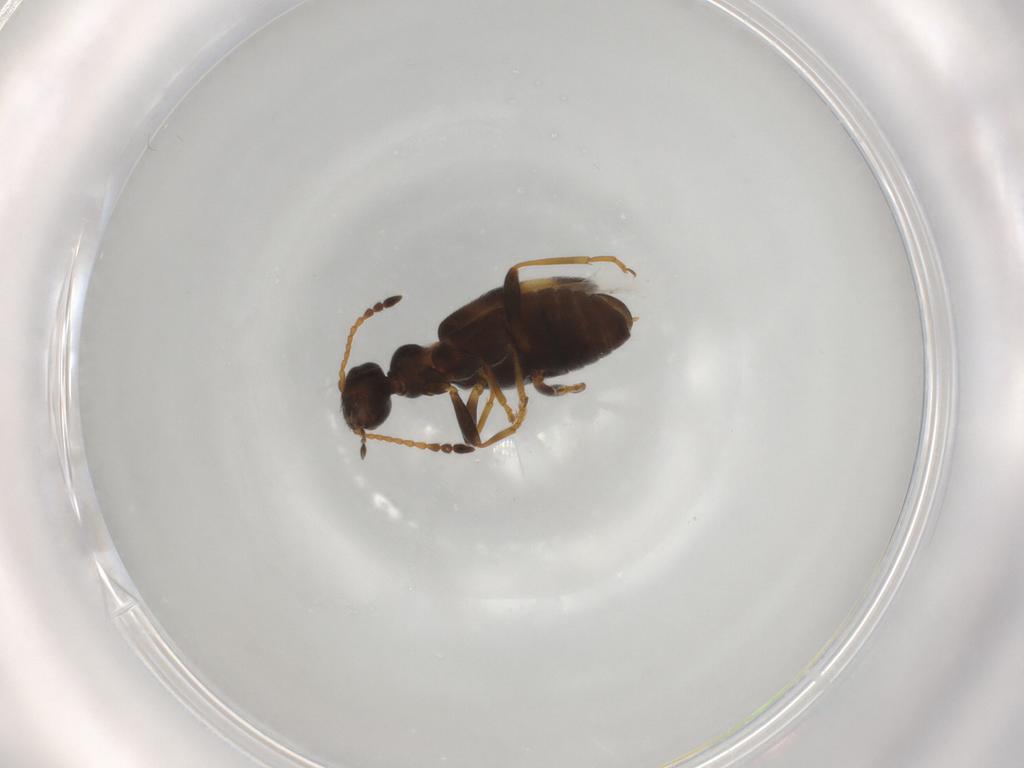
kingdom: Animalia
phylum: Arthropoda
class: Insecta
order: Coleoptera
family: Anthicidae
